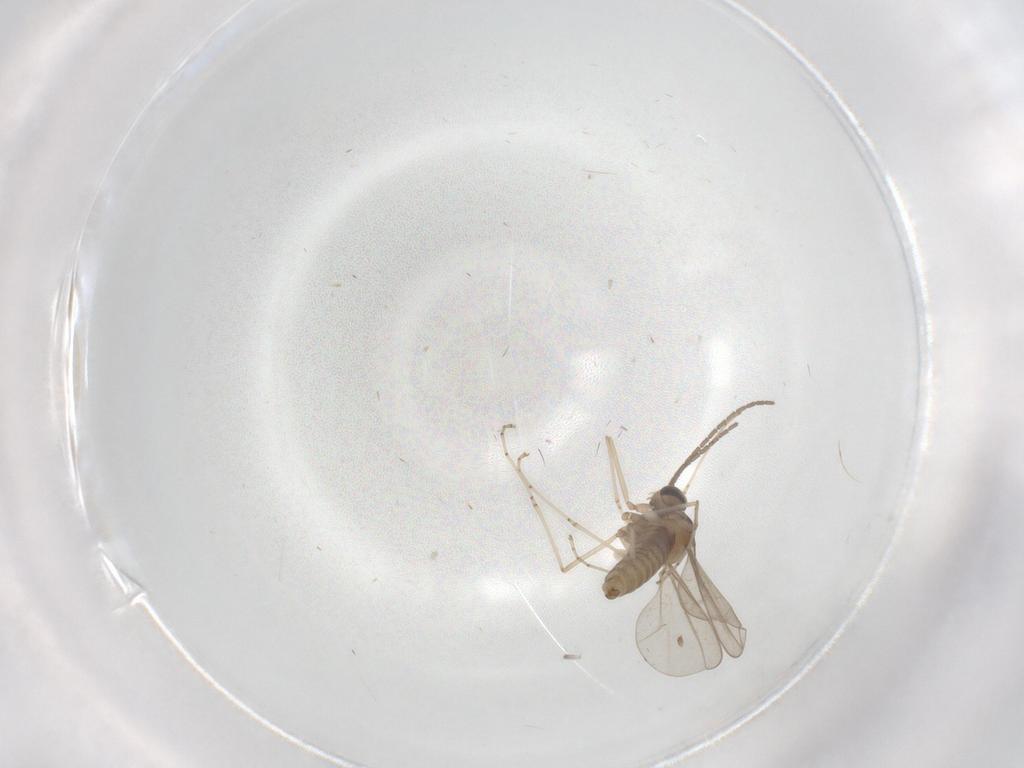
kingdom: Animalia
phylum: Arthropoda
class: Insecta
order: Diptera
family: Cecidomyiidae
